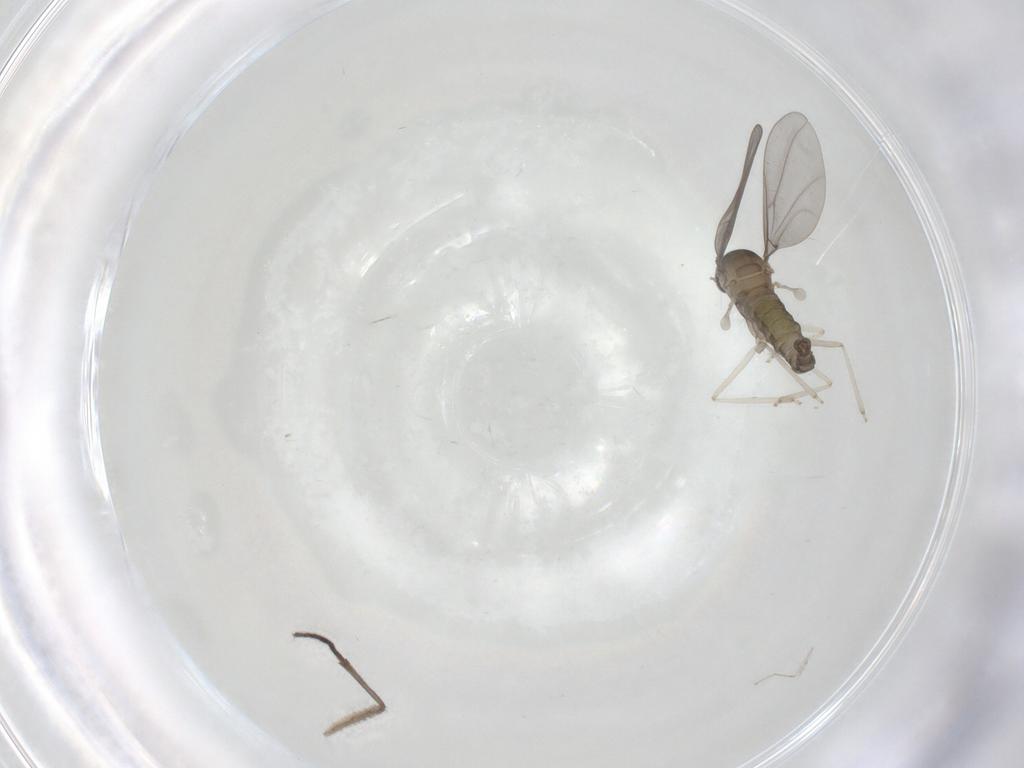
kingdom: Animalia
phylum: Arthropoda
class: Insecta
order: Diptera
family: Cecidomyiidae
